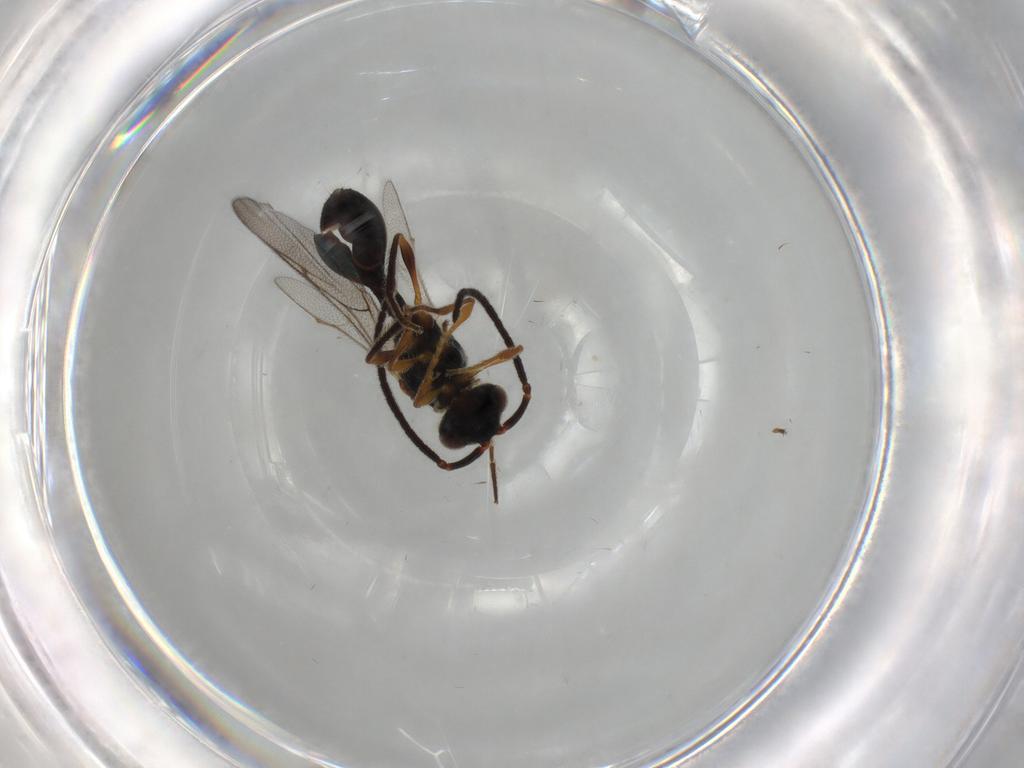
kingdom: Animalia
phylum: Arthropoda
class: Insecta
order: Hymenoptera
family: Diapriidae
